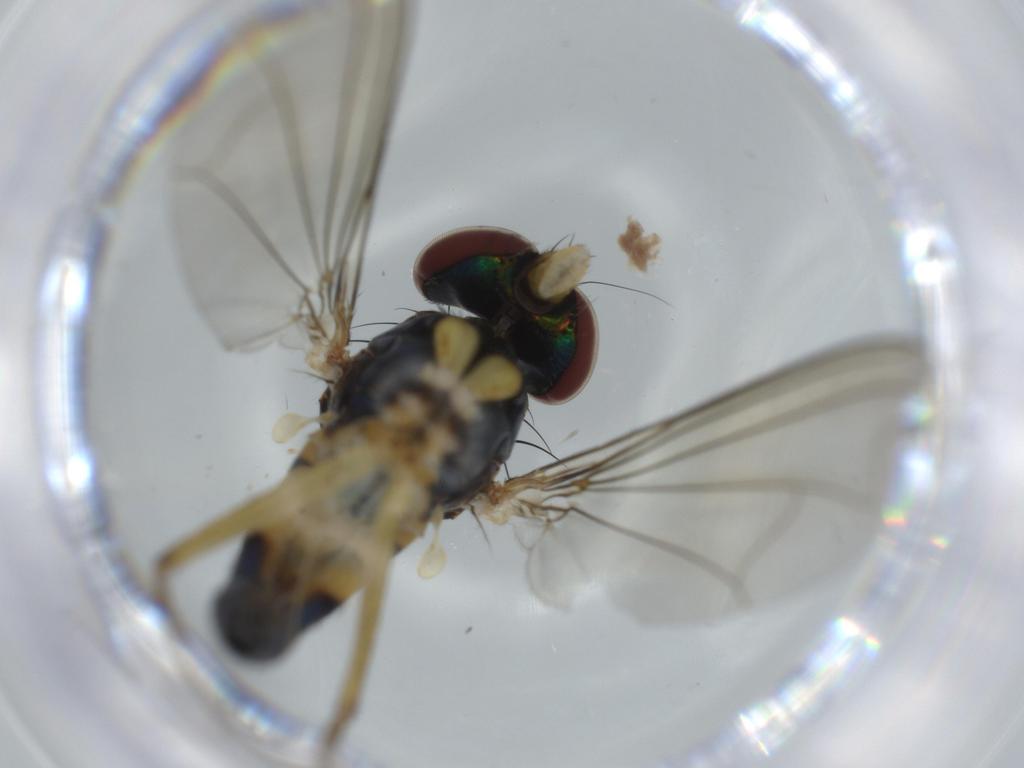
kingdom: Animalia
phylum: Arthropoda
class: Insecta
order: Diptera
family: Dolichopodidae
